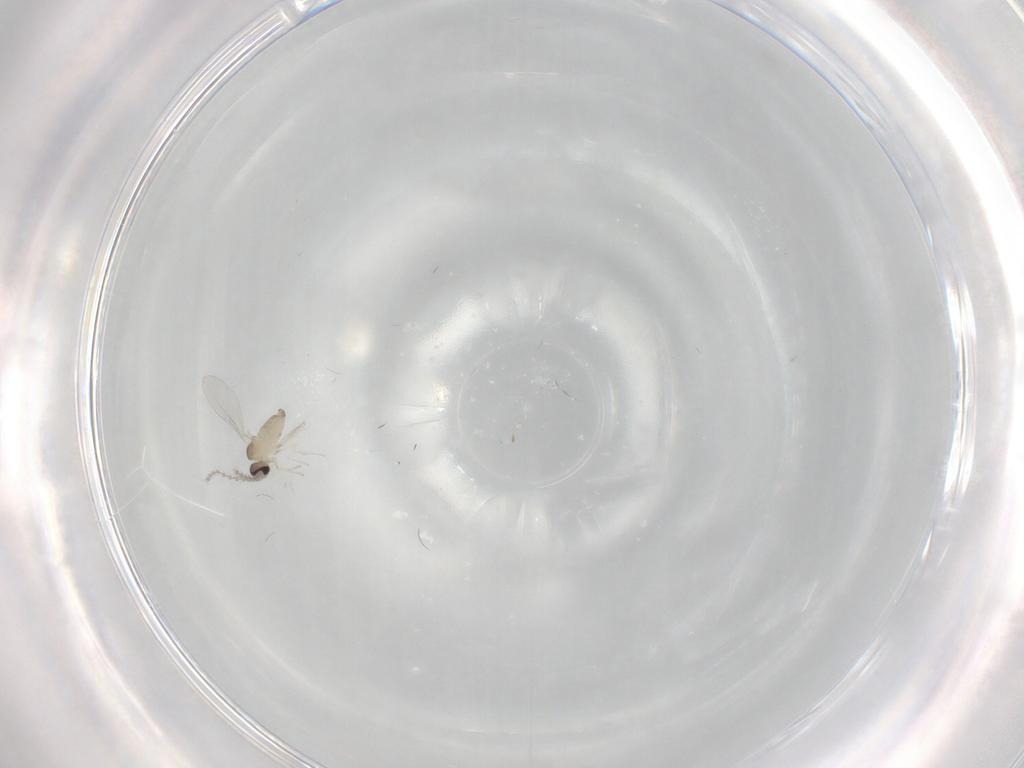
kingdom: Animalia
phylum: Arthropoda
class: Insecta
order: Diptera
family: Cecidomyiidae
